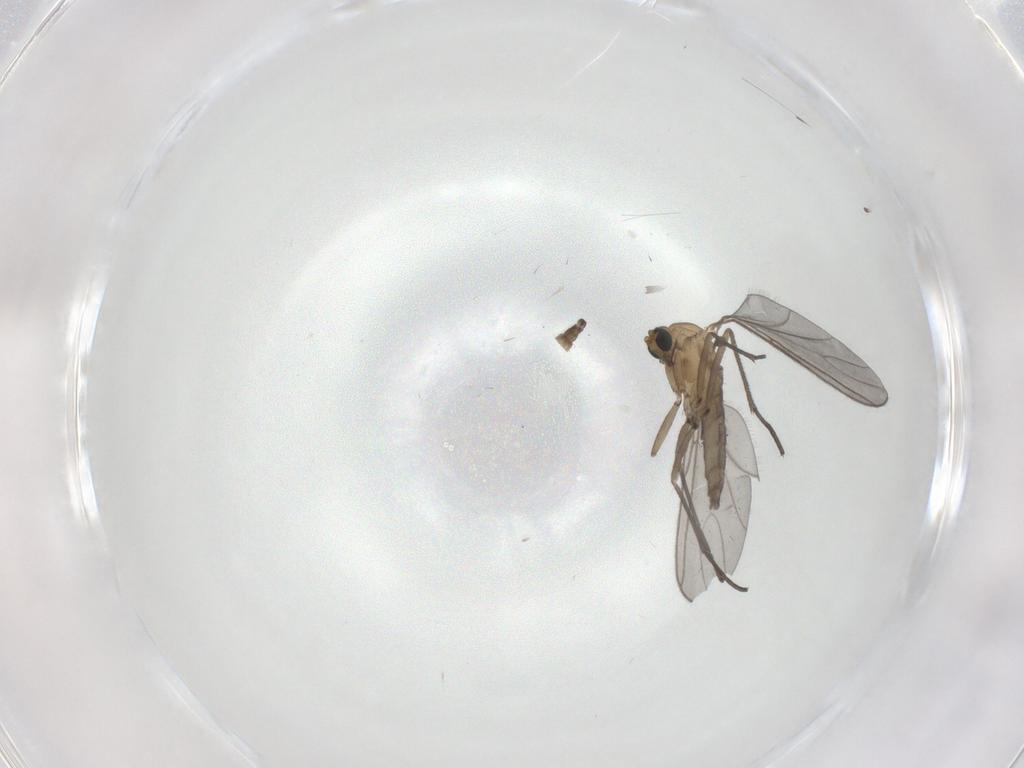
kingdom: Animalia
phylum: Arthropoda
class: Insecta
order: Diptera
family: Sciaridae
